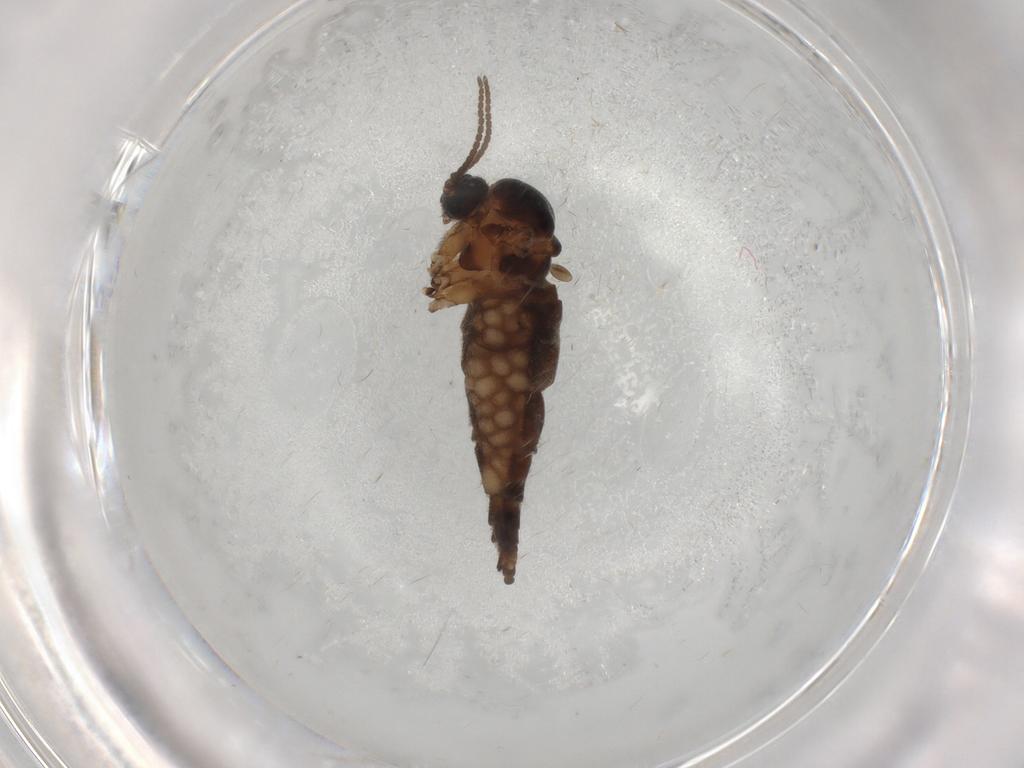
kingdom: Animalia
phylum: Arthropoda
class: Insecta
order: Diptera
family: Sciaridae
